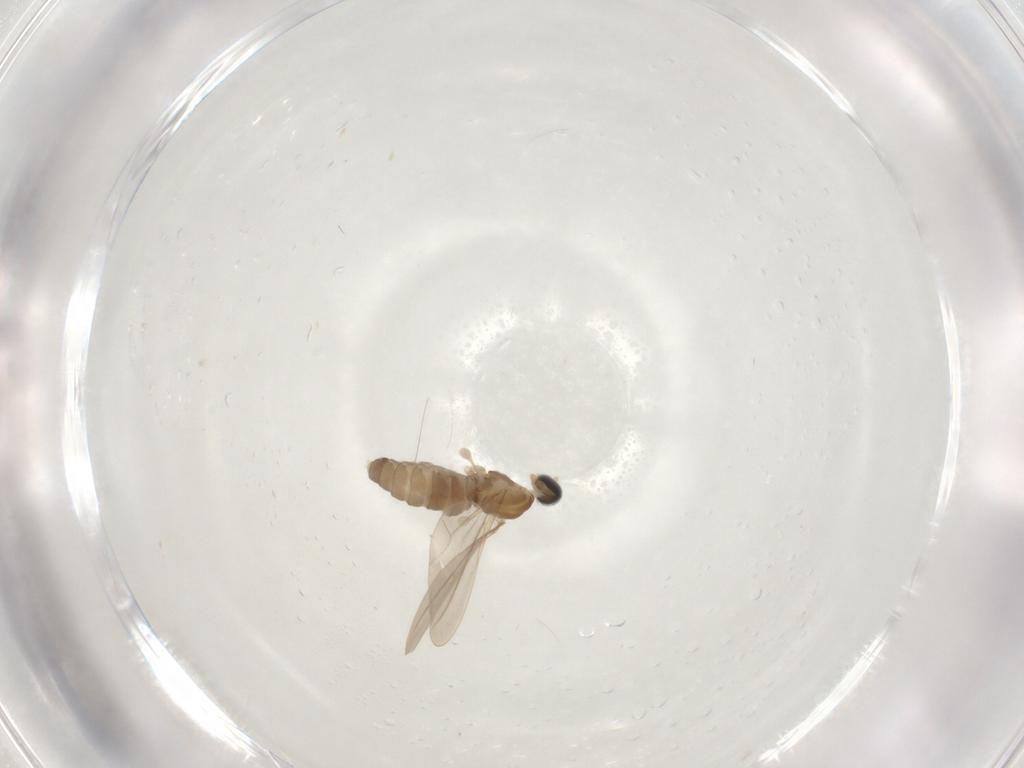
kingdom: Animalia
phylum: Arthropoda
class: Insecta
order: Diptera
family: Cecidomyiidae
